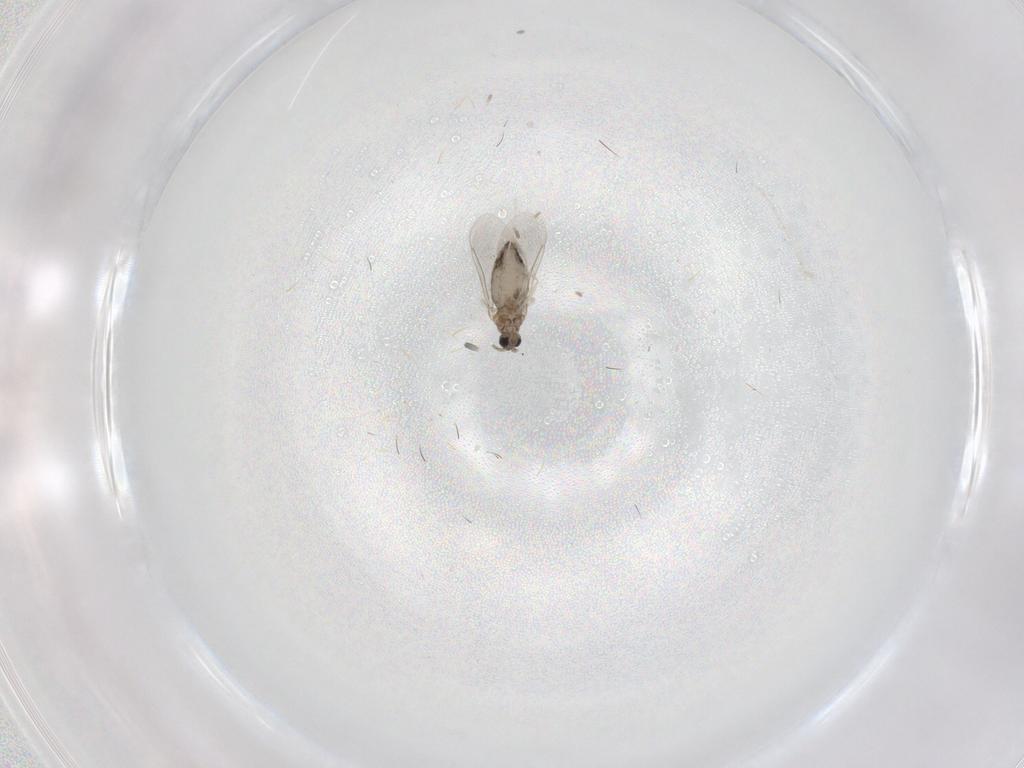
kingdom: Animalia
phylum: Arthropoda
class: Insecta
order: Diptera
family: Cecidomyiidae
